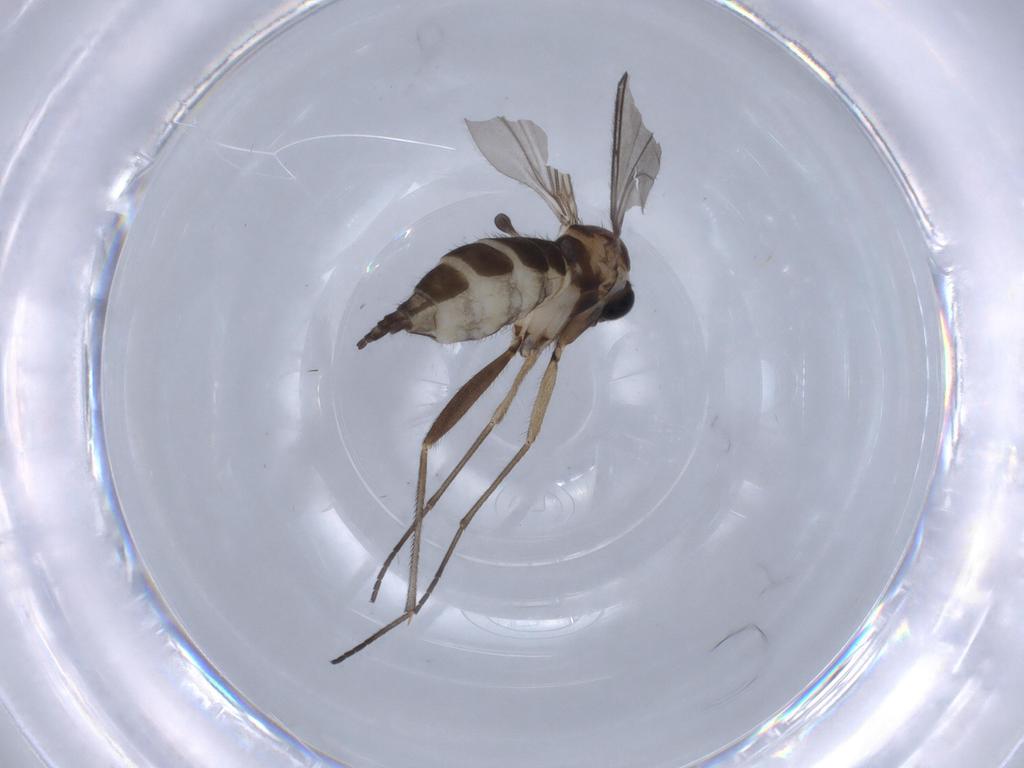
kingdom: Animalia
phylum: Arthropoda
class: Insecta
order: Diptera
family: Sciaridae
